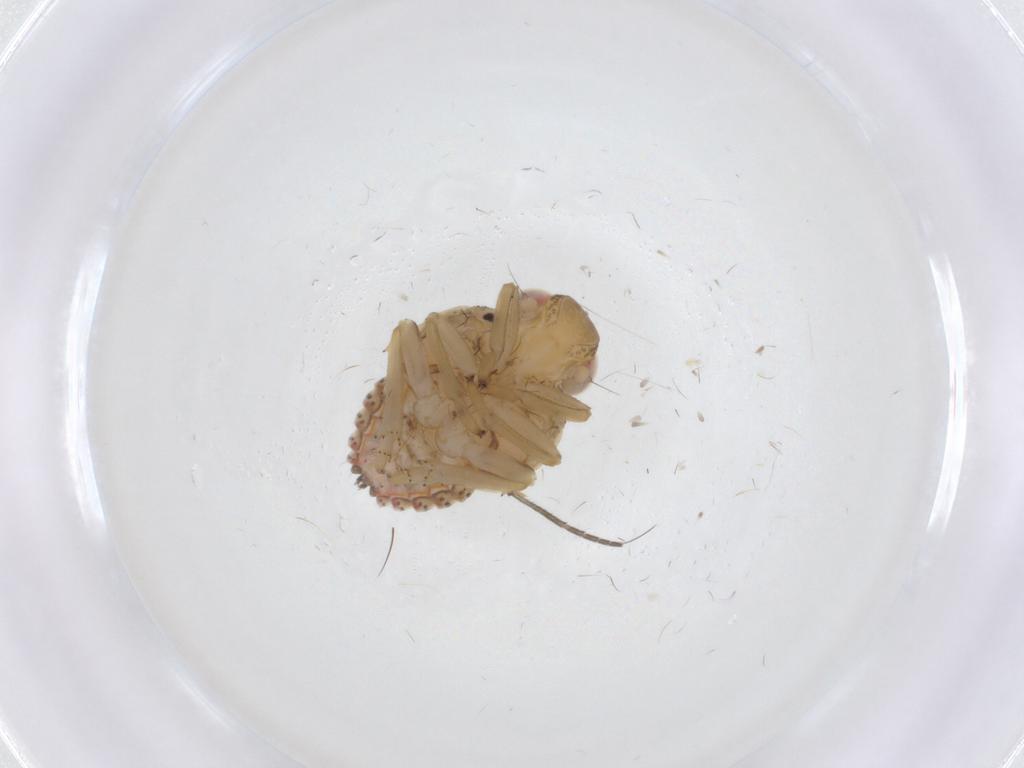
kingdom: Animalia
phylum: Arthropoda
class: Insecta
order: Hemiptera
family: Issidae
